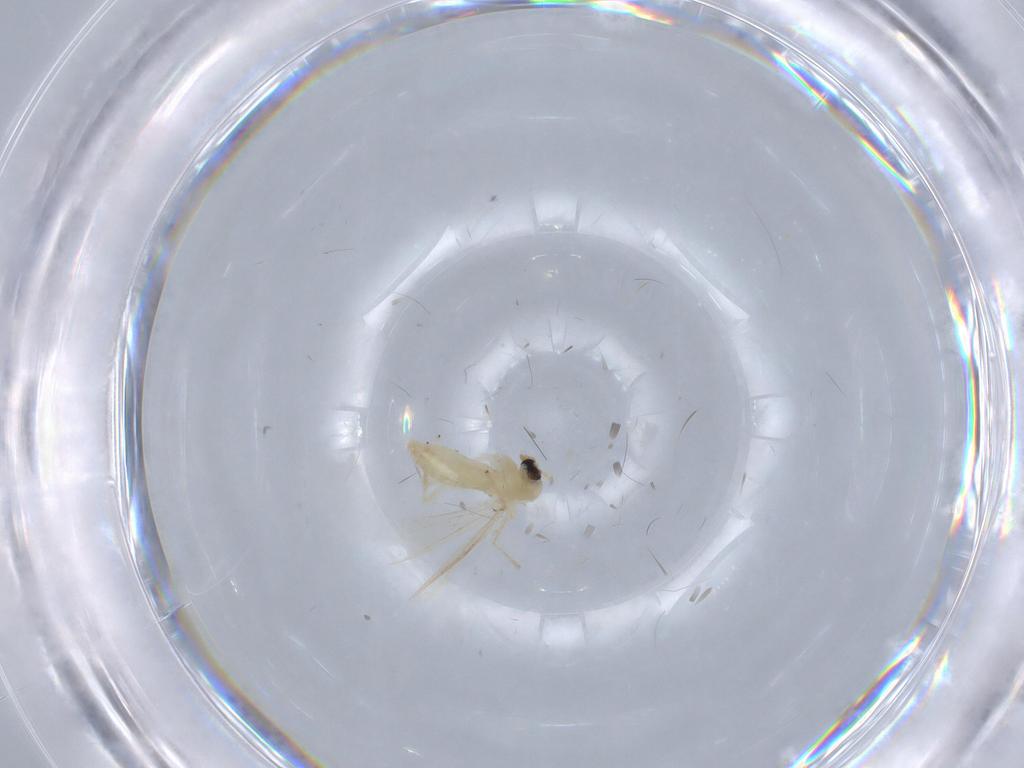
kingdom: Animalia
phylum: Arthropoda
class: Insecta
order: Diptera
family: Chironomidae
